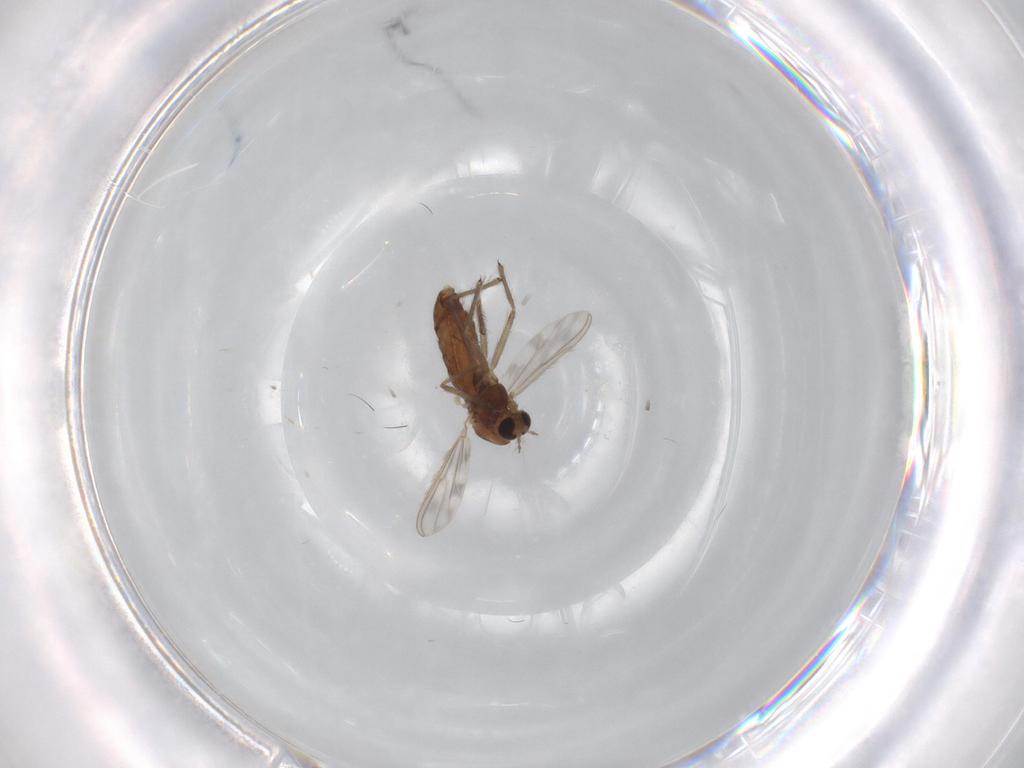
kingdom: Animalia
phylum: Arthropoda
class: Insecta
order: Diptera
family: Chironomidae
